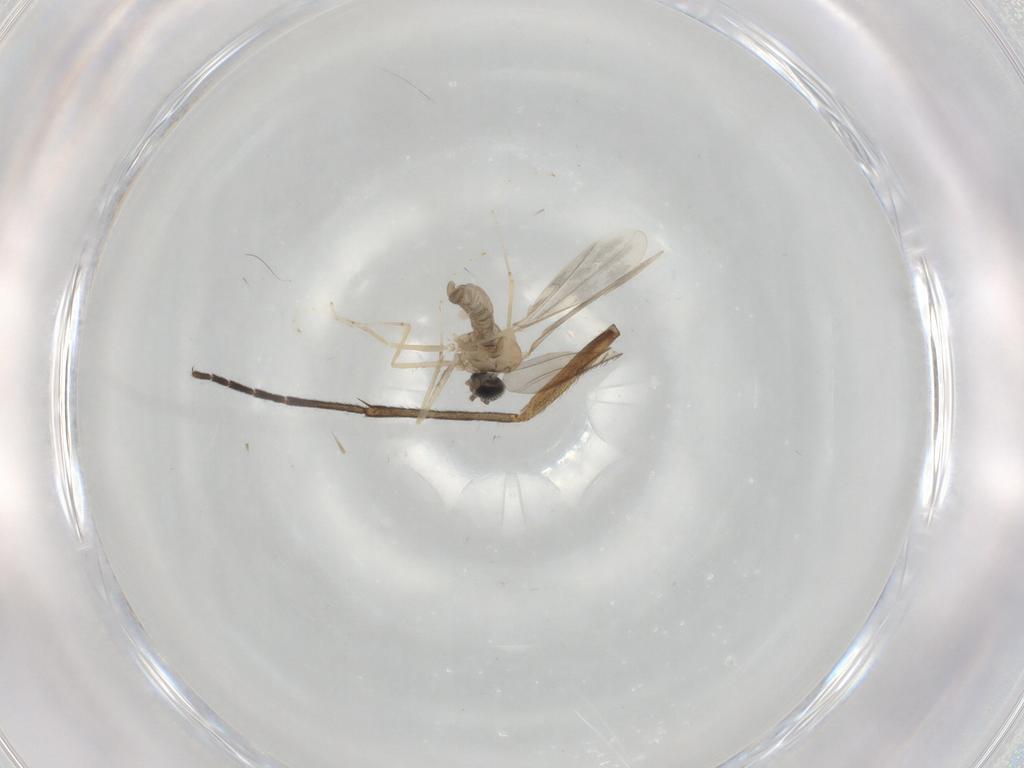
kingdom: Animalia
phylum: Arthropoda
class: Insecta
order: Diptera
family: Sciaridae
